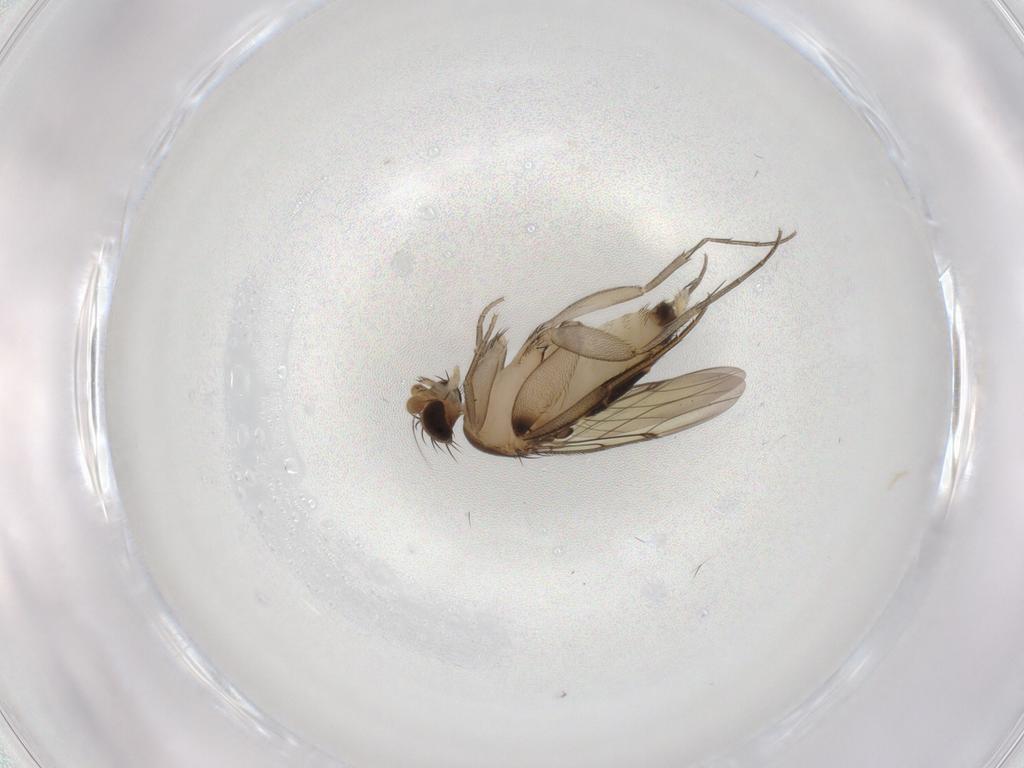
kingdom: Animalia
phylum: Arthropoda
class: Insecta
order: Diptera
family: Phoridae
